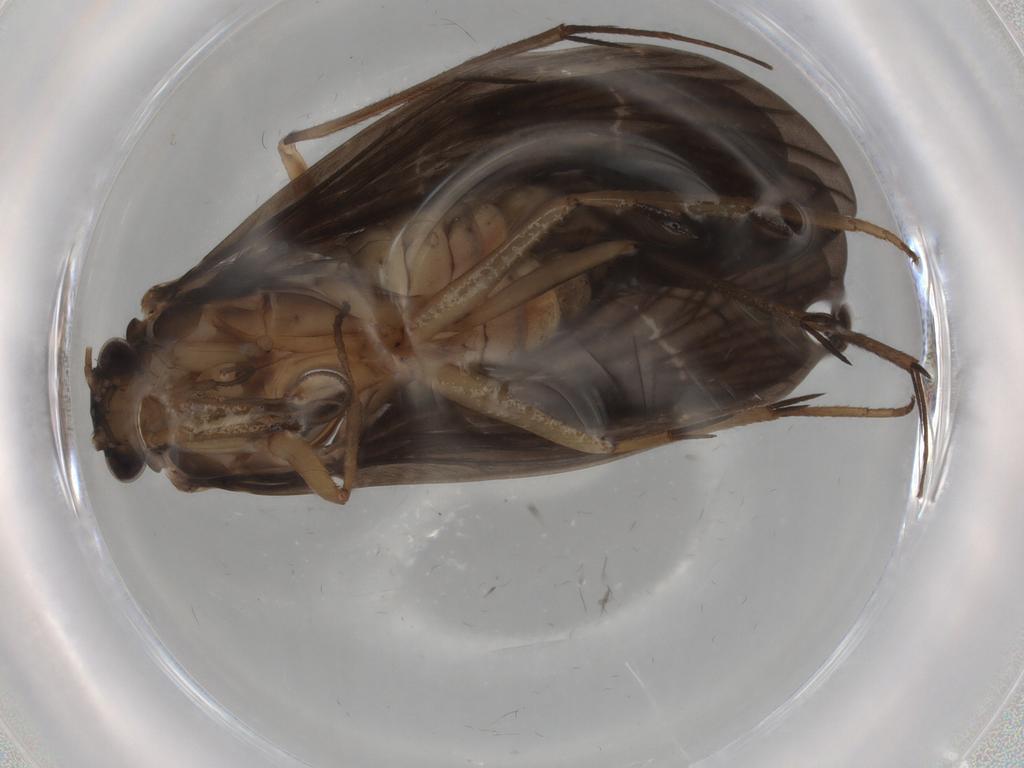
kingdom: Animalia
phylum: Arthropoda
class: Insecta
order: Trichoptera
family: Philopotamidae
